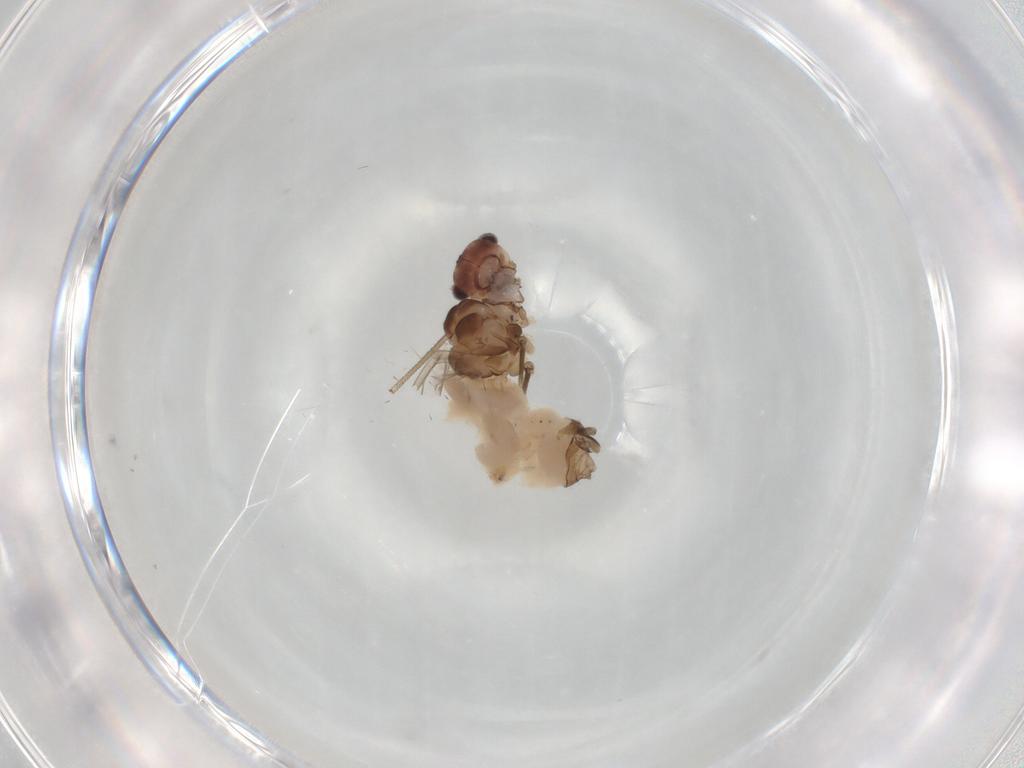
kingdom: Animalia
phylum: Arthropoda
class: Insecta
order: Psocodea
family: Peripsocidae
